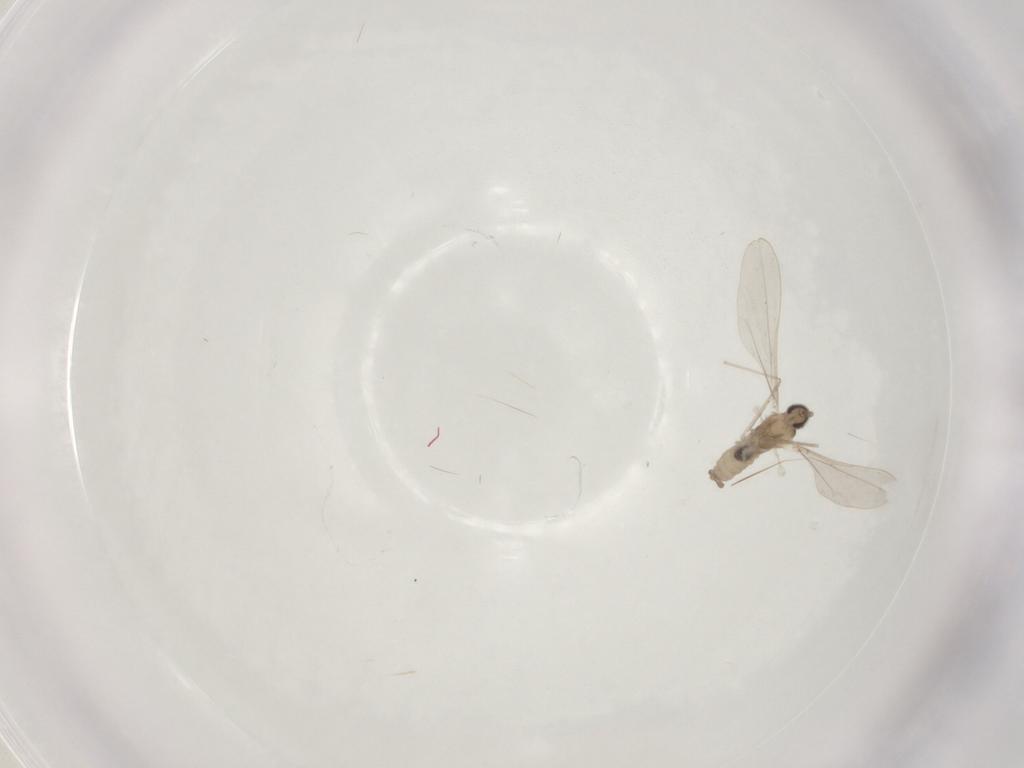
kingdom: Animalia
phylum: Arthropoda
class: Insecta
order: Diptera
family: Cecidomyiidae
